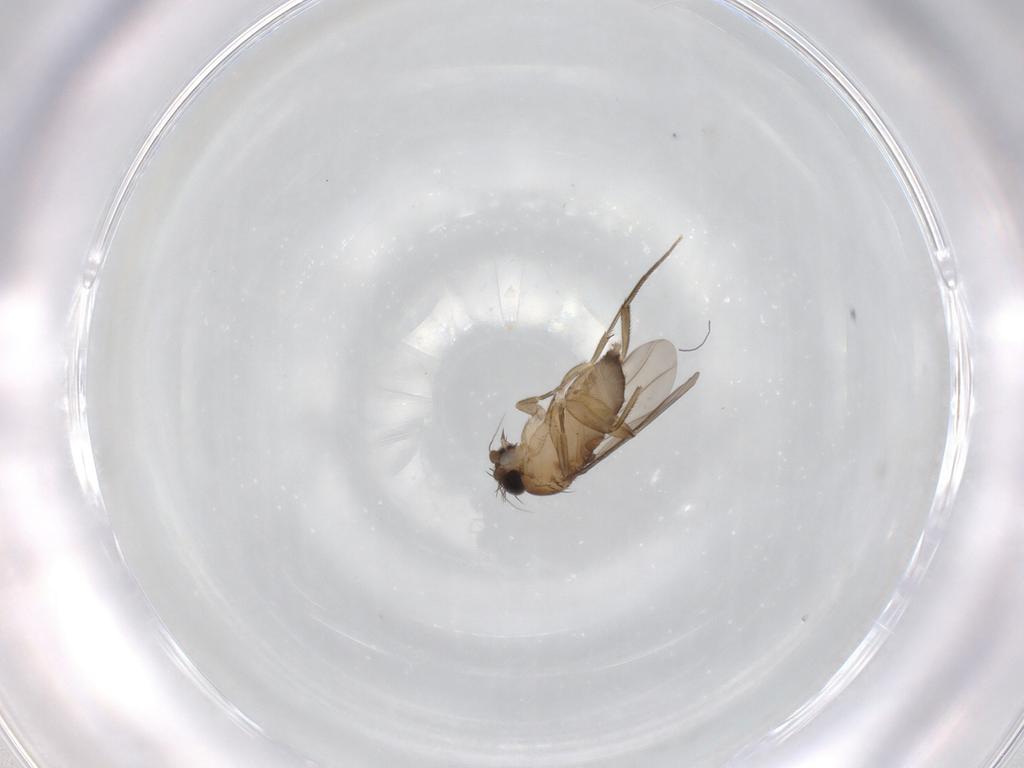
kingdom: Animalia
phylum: Arthropoda
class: Insecta
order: Diptera
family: Phoridae
